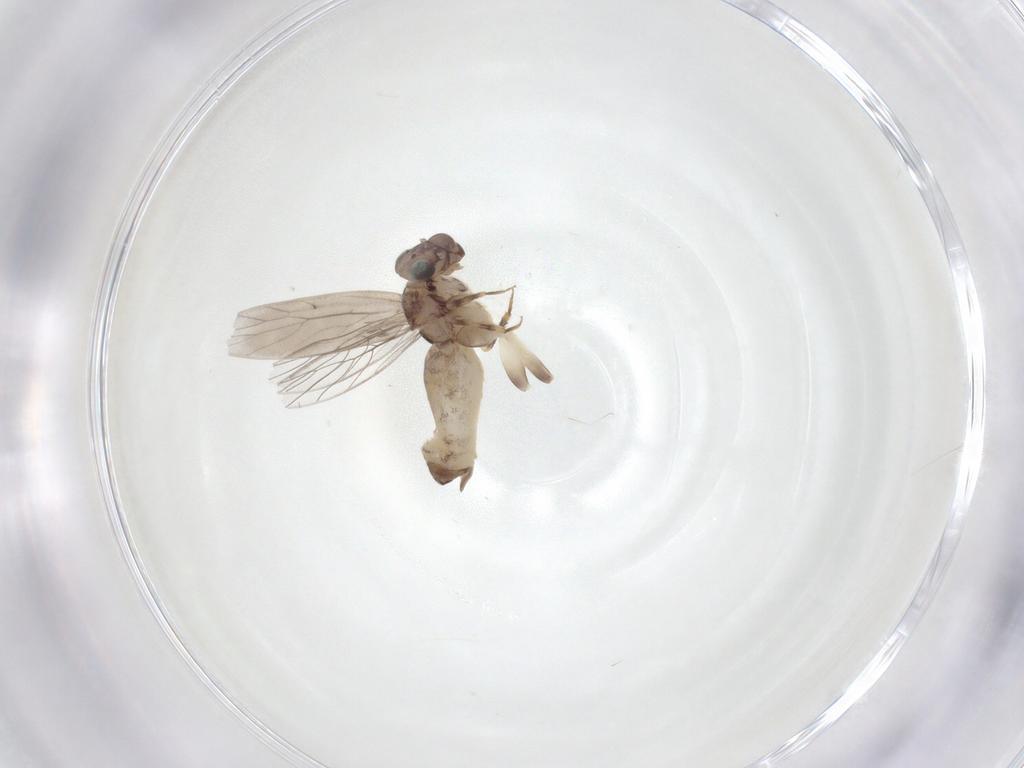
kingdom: Animalia
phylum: Arthropoda
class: Insecta
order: Psocodea
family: Lepidopsocidae
